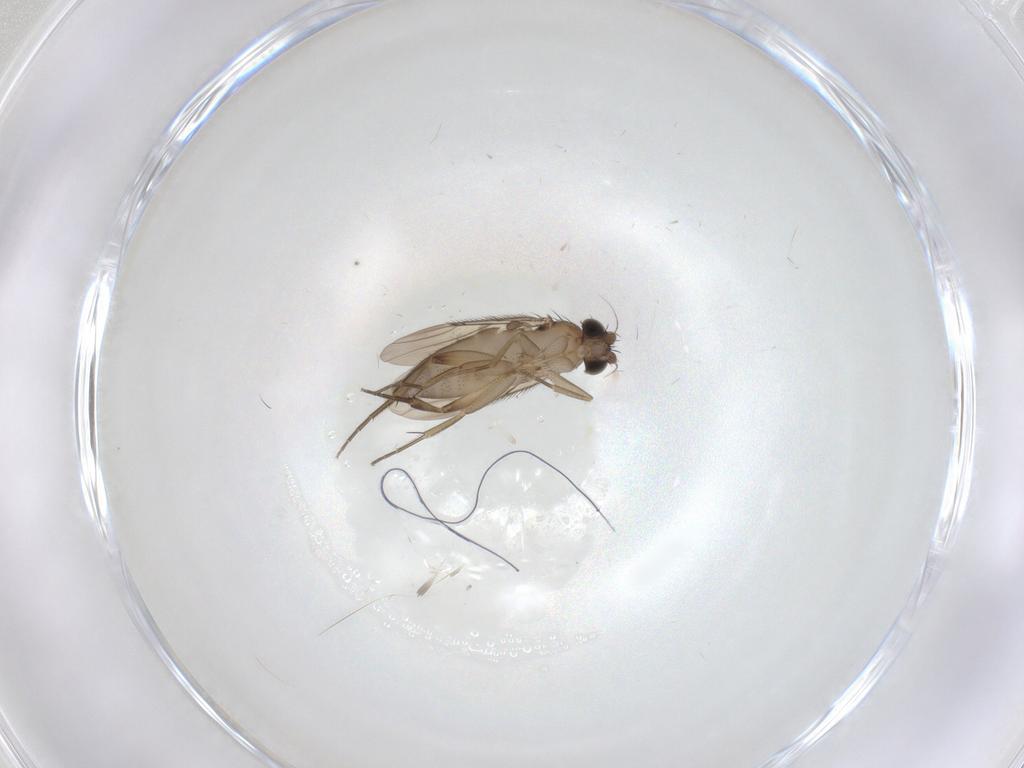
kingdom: Animalia
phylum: Arthropoda
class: Insecta
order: Diptera
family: Phoridae
